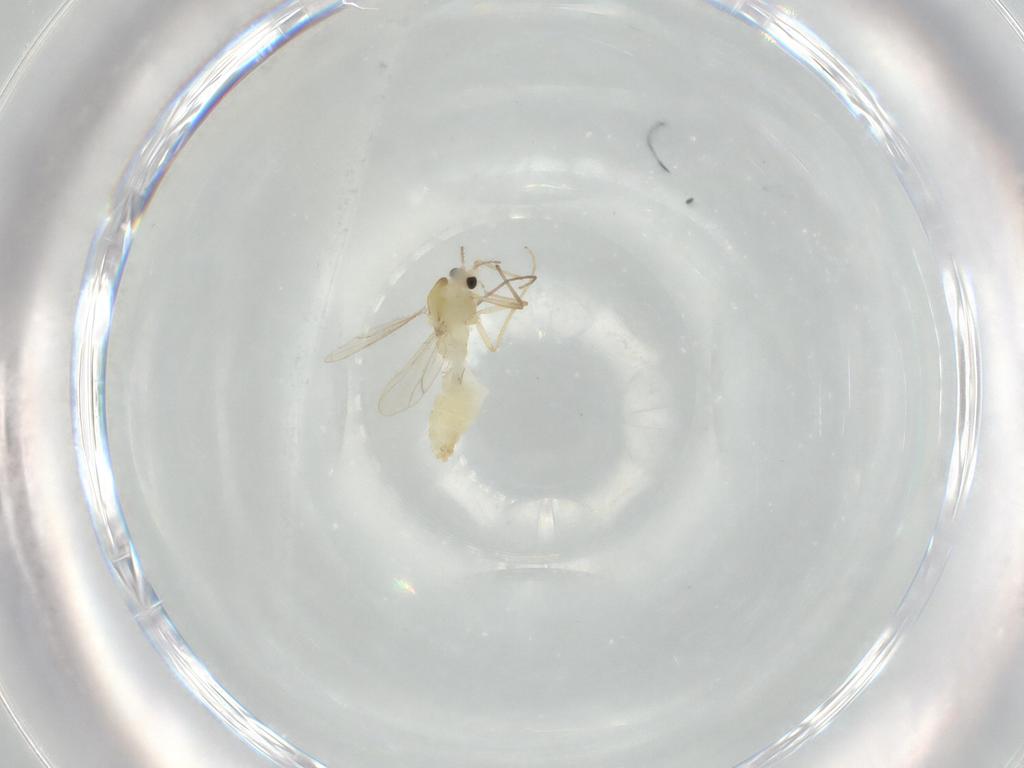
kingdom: Animalia
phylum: Arthropoda
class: Insecta
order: Diptera
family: Chironomidae
